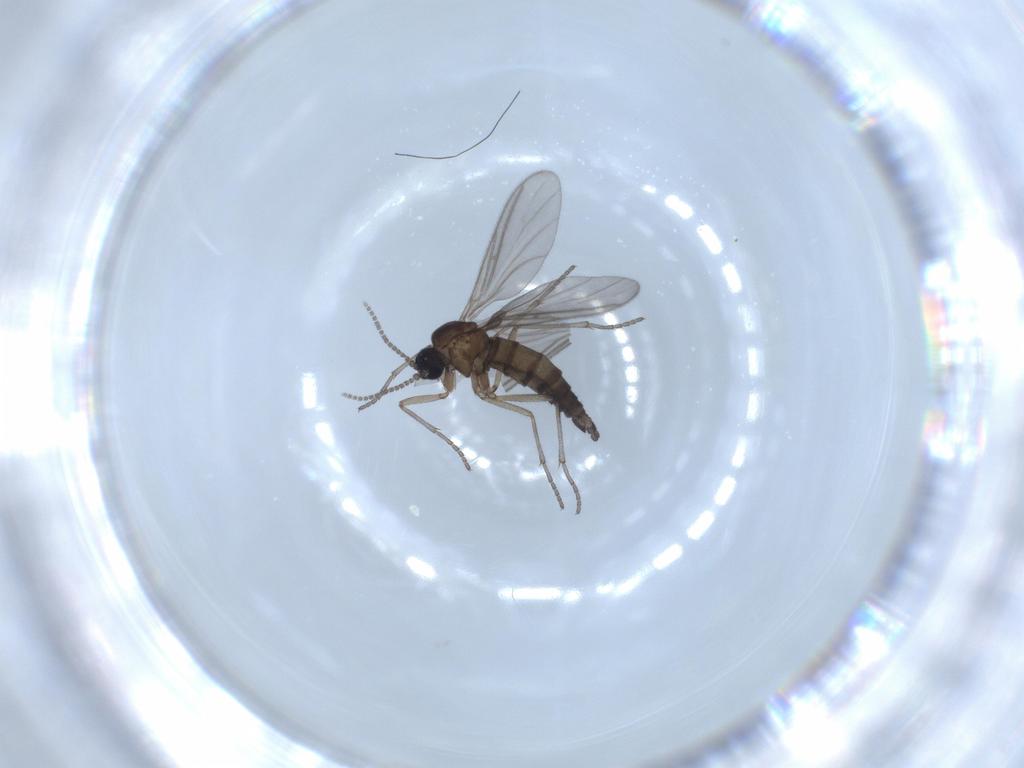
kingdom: Animalia
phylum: Arthropoda
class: Insecta
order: Diptera
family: Sciaridae
